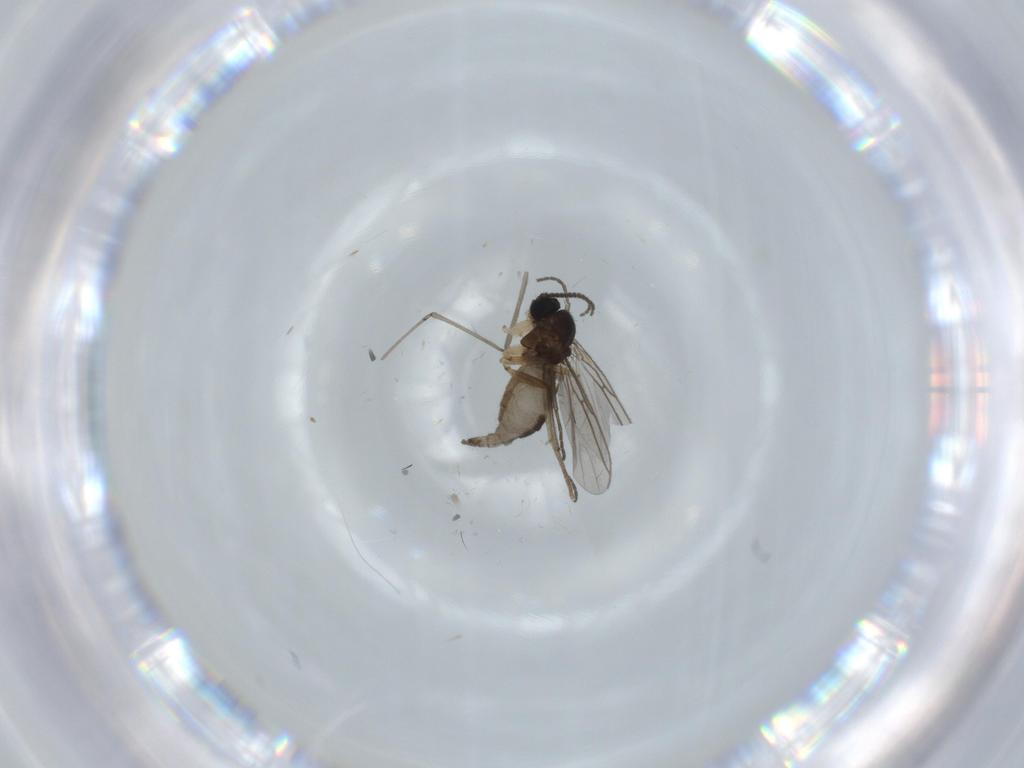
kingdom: Animalia
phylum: Arthropoda
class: Insecta
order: Diptera
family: Sciaridae
